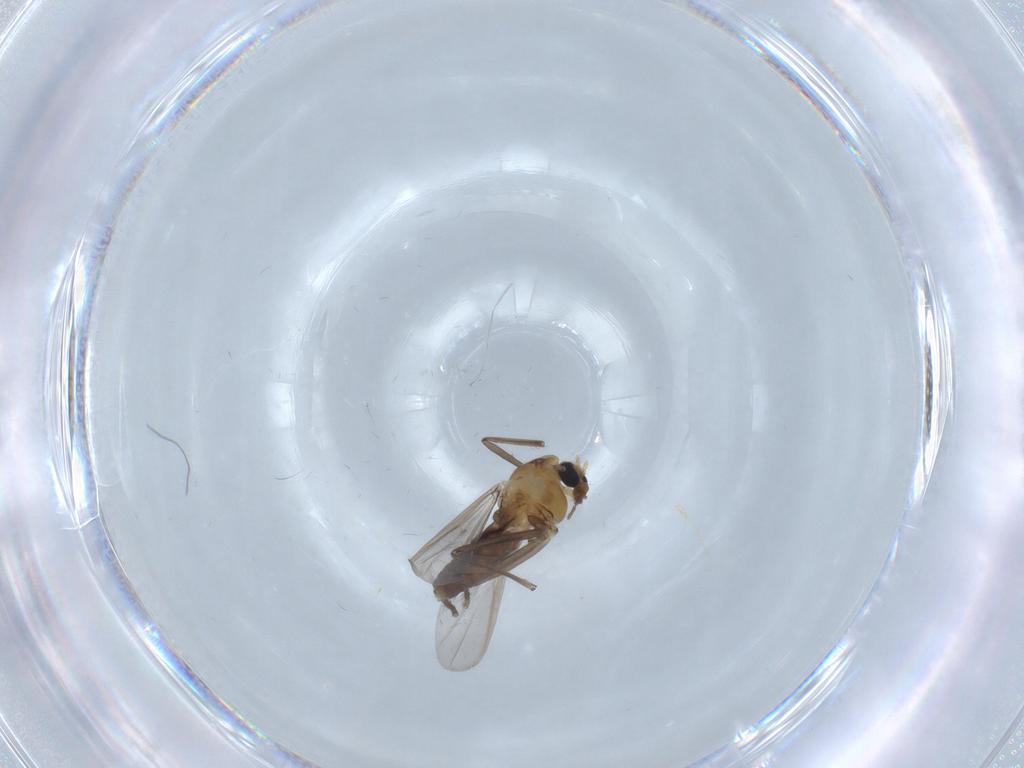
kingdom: Animalia
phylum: Arthropoda
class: Insecta
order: Diptera
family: Psychodidae
